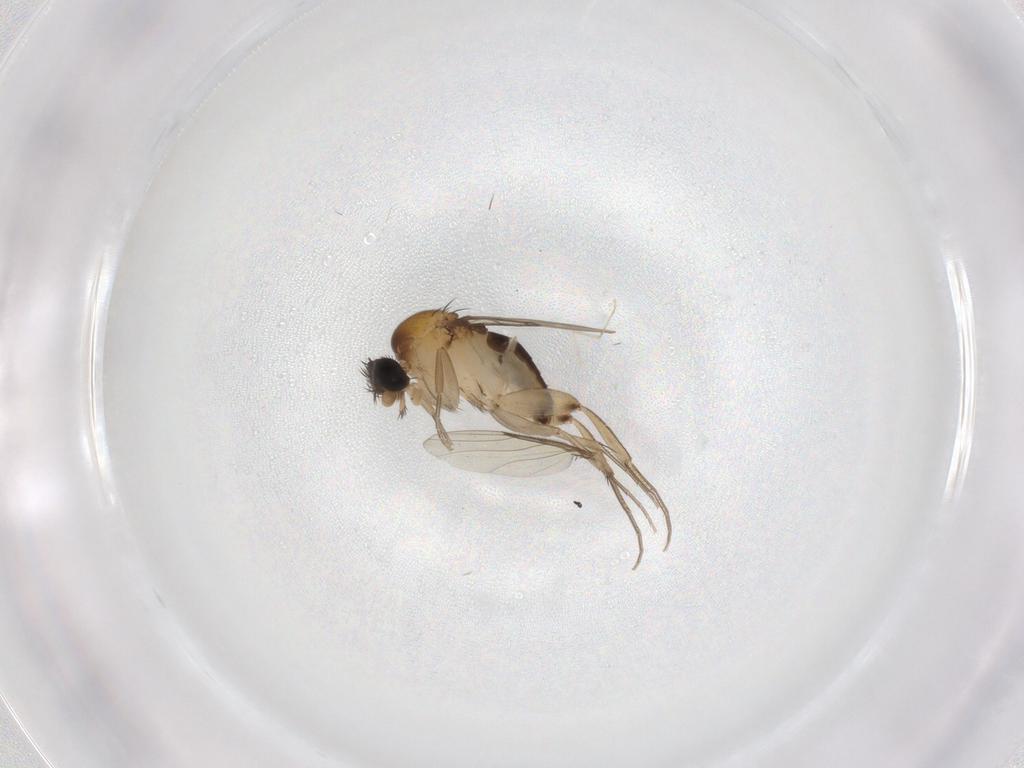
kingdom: Animalia
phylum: Arthropoda
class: Insecta
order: Diptera
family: Phoridae
